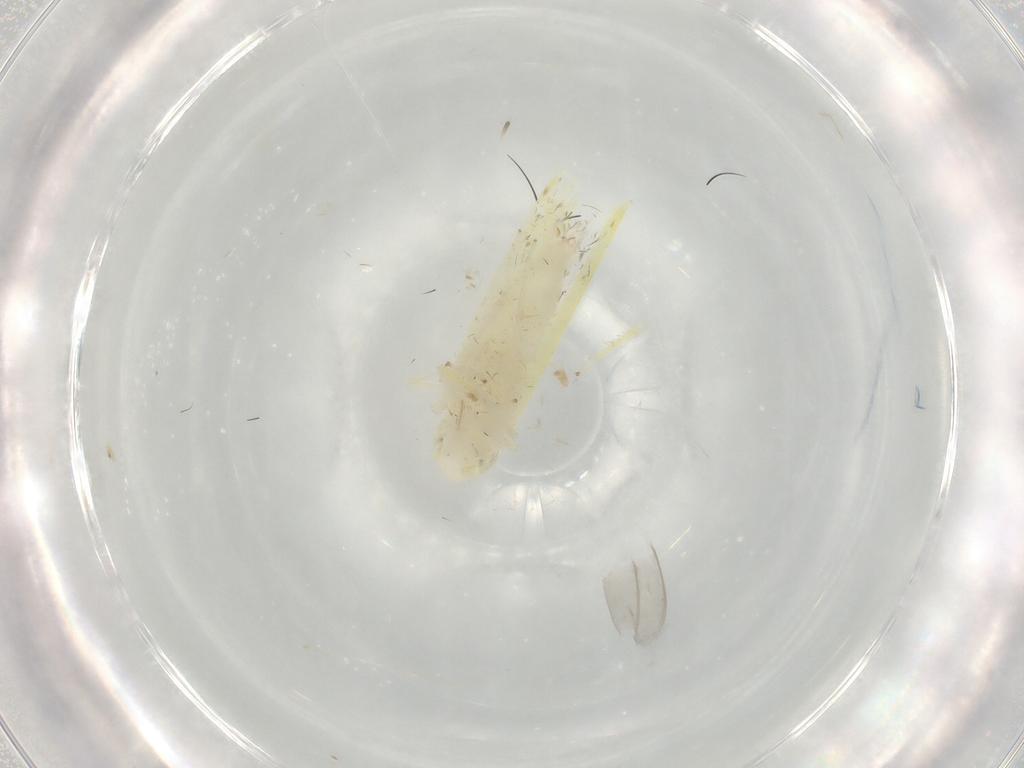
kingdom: Animalia
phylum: Arthropoda
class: Insecta
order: Hemiptera
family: Cicadellidae
